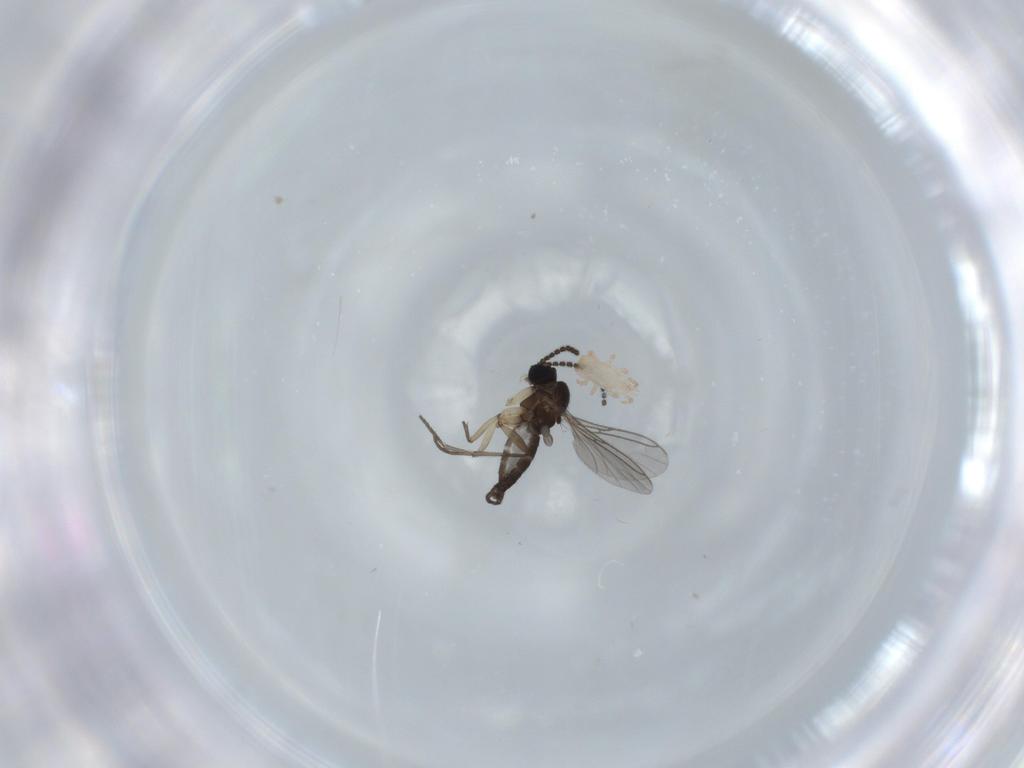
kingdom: Animalia
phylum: Arthropoda
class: Insecta
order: Diptera
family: Sciaridae
